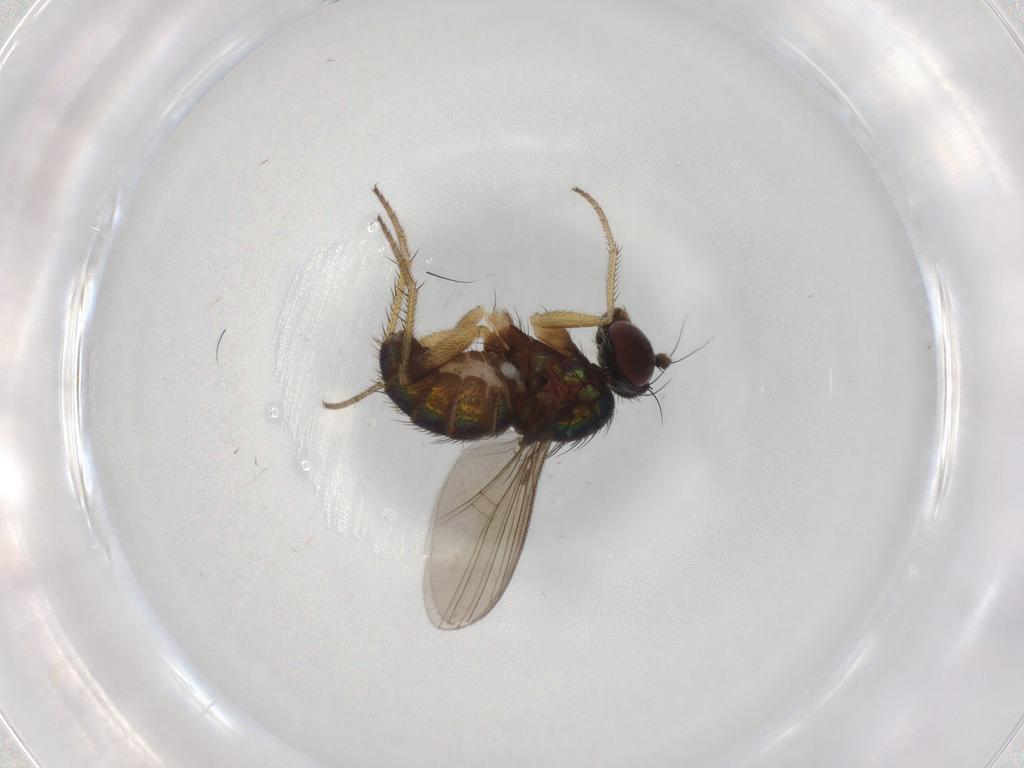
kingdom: Animalia
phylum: Arthropoda
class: Insecta
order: Diptera
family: Dolichopodidae
